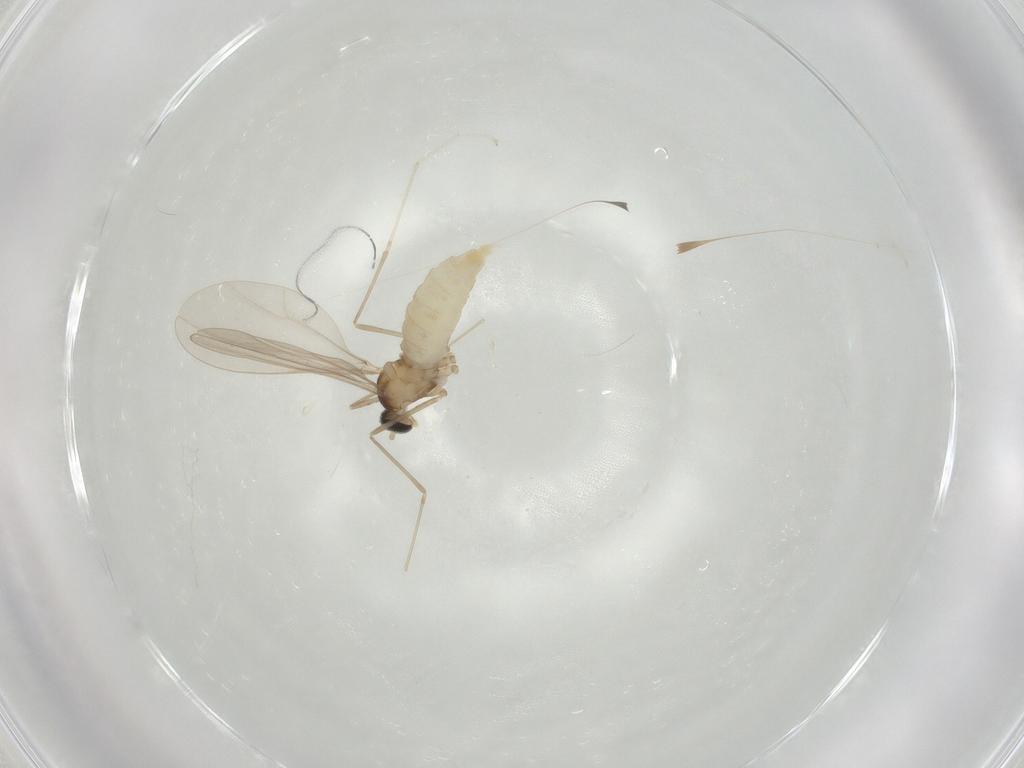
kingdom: Animalia
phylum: Arthropoda
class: Insecta
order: Diptera
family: Cecidomyiidae
